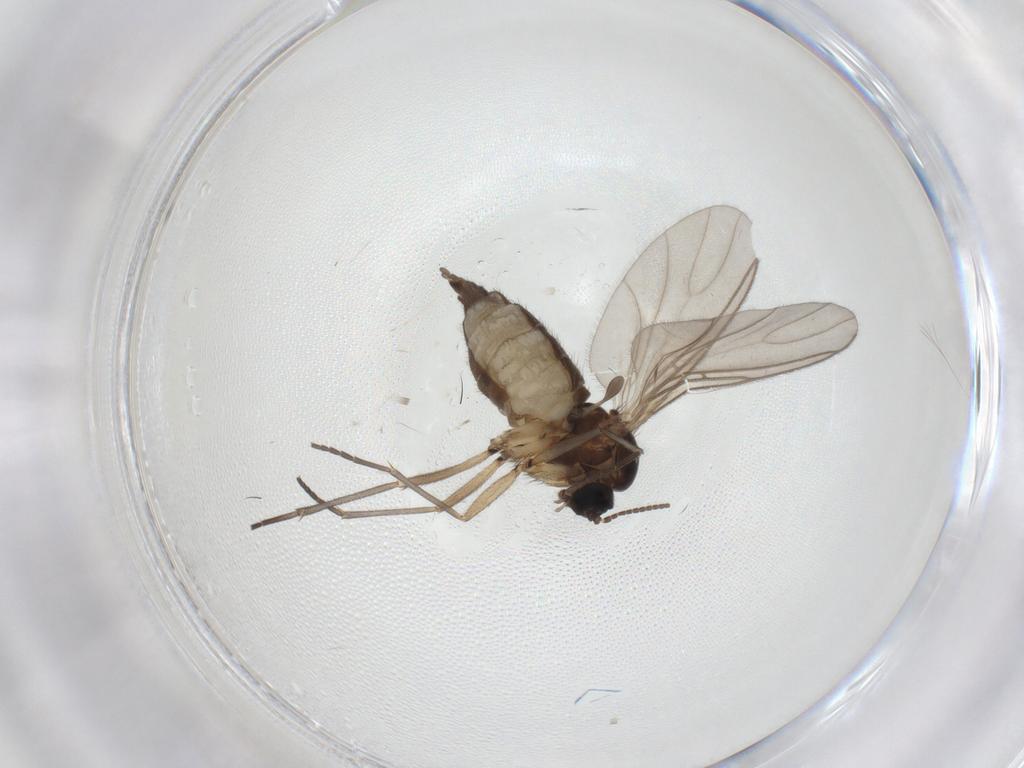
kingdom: Animalia
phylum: Arthropoda
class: Insecta
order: Diptera
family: Sciaridae
